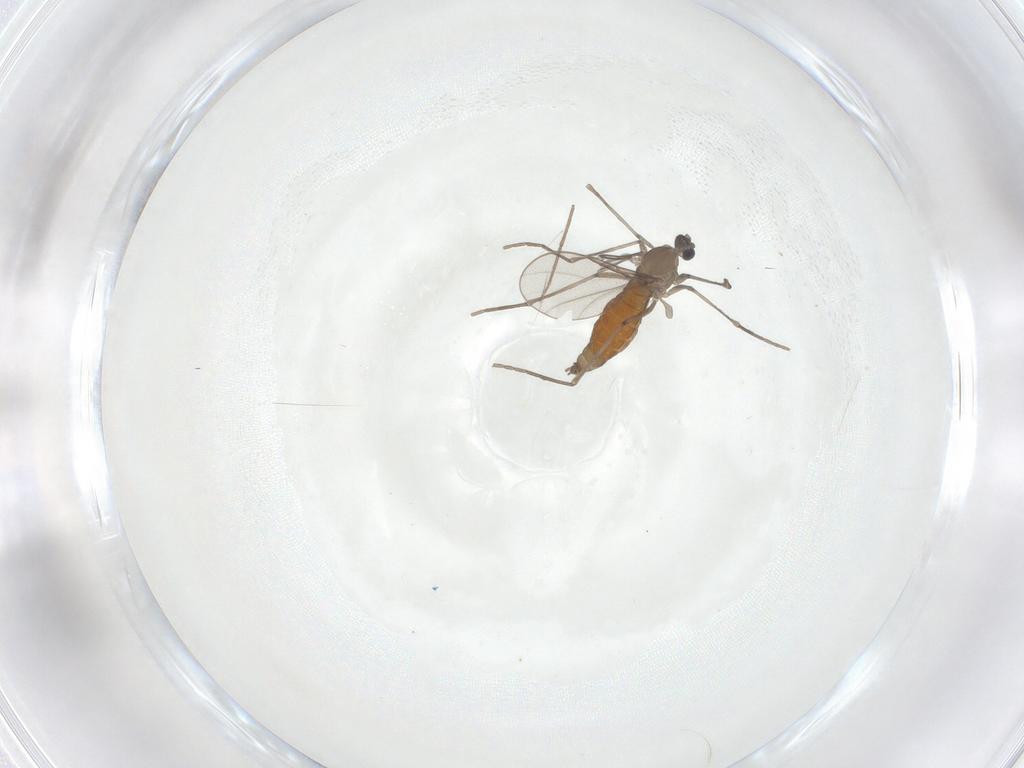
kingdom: Animalia
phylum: Arthropoda
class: Insecta
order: Diptera
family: Cecidomyiidae
